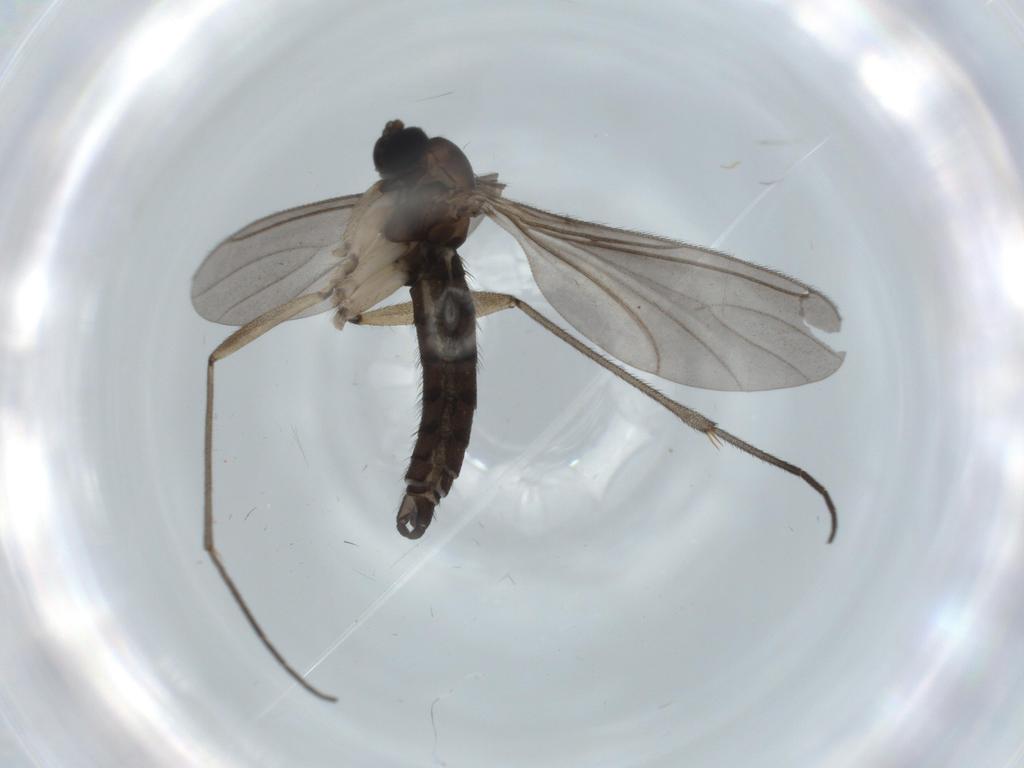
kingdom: Animalia
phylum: Arthropoda
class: Insecta
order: Diptera
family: Sciaridae
